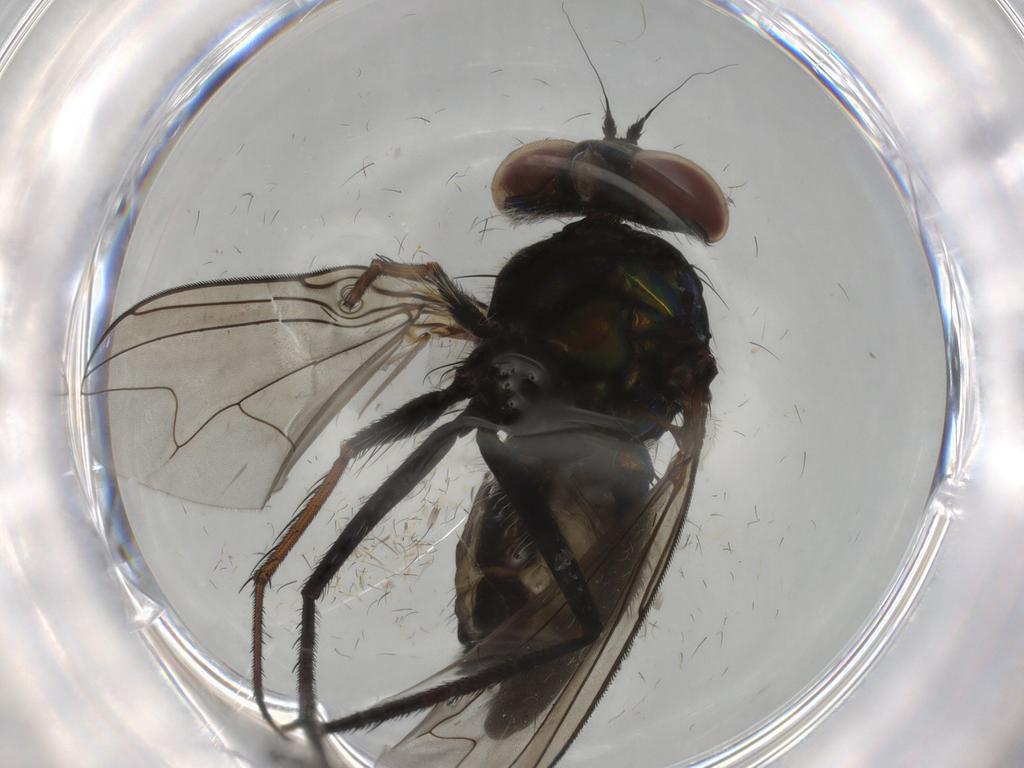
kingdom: Animalia
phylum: Arthropoda
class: Insecta
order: Diptera
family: Dolichopodidae
